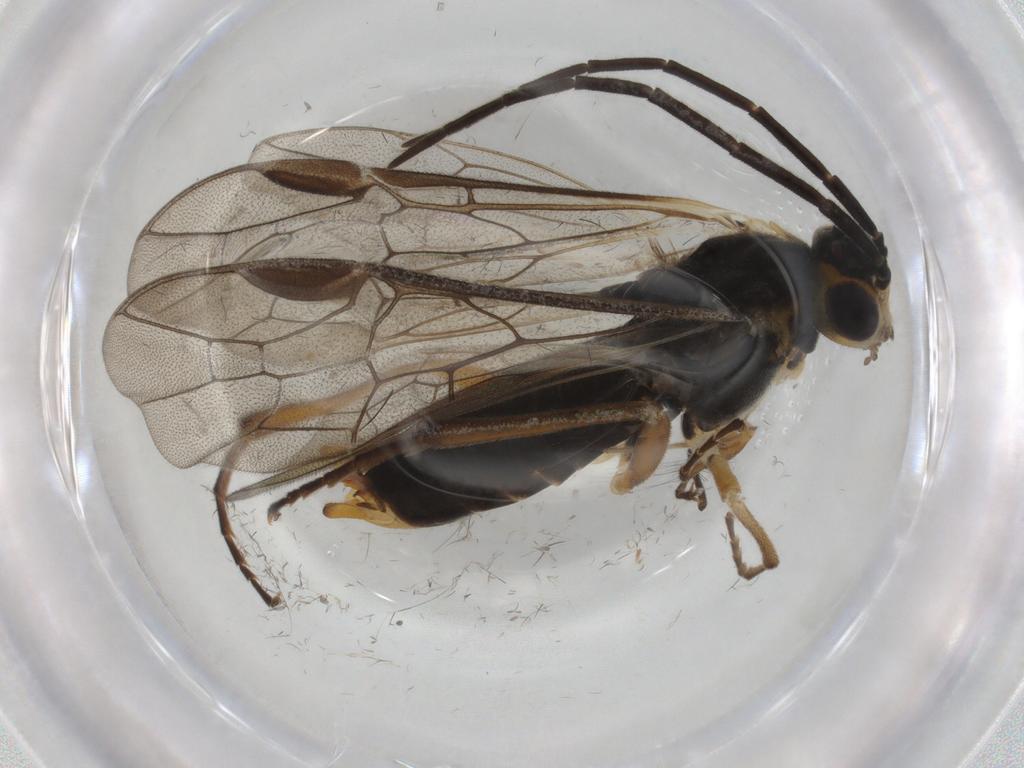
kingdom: Animalia
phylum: Arthropoda
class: Insecta
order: Hymenoptera
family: Tenthredinidae
